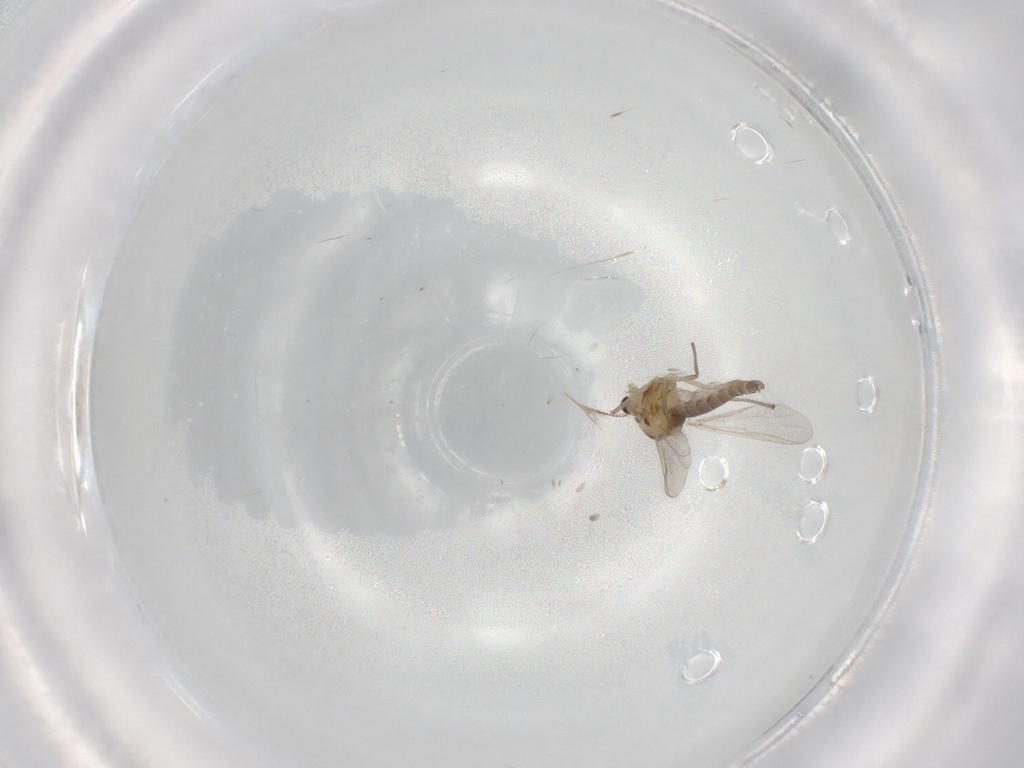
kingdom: Animalia
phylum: Arthropoda
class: Insecta
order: Diptera
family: Chironomidae
